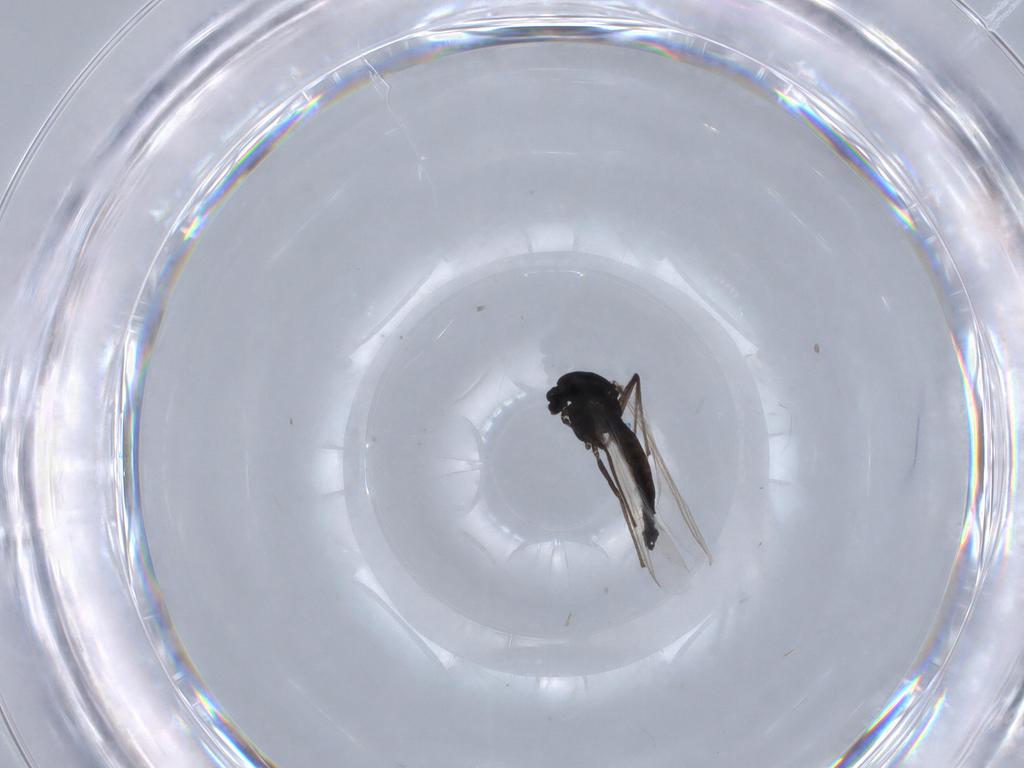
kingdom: Animalia
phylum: Arthropoda
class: Insecta
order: Diptera
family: Chironomidae
